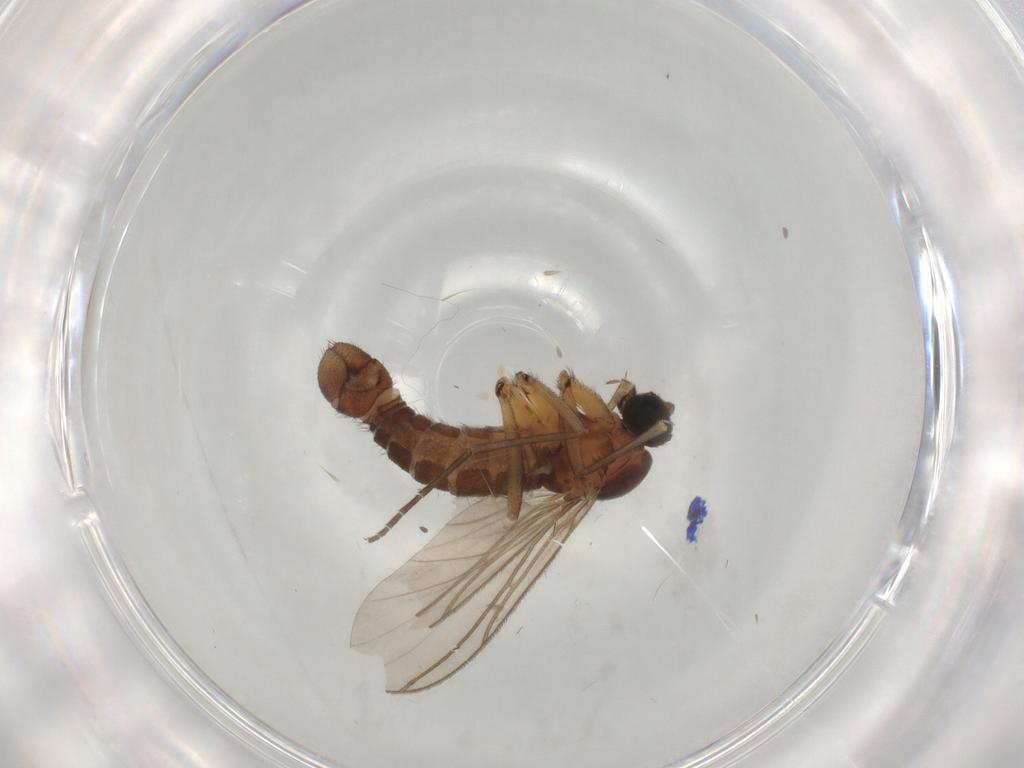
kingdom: Animalia
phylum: Arthropoda
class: Insecta
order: Diptera
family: Sciaridae
